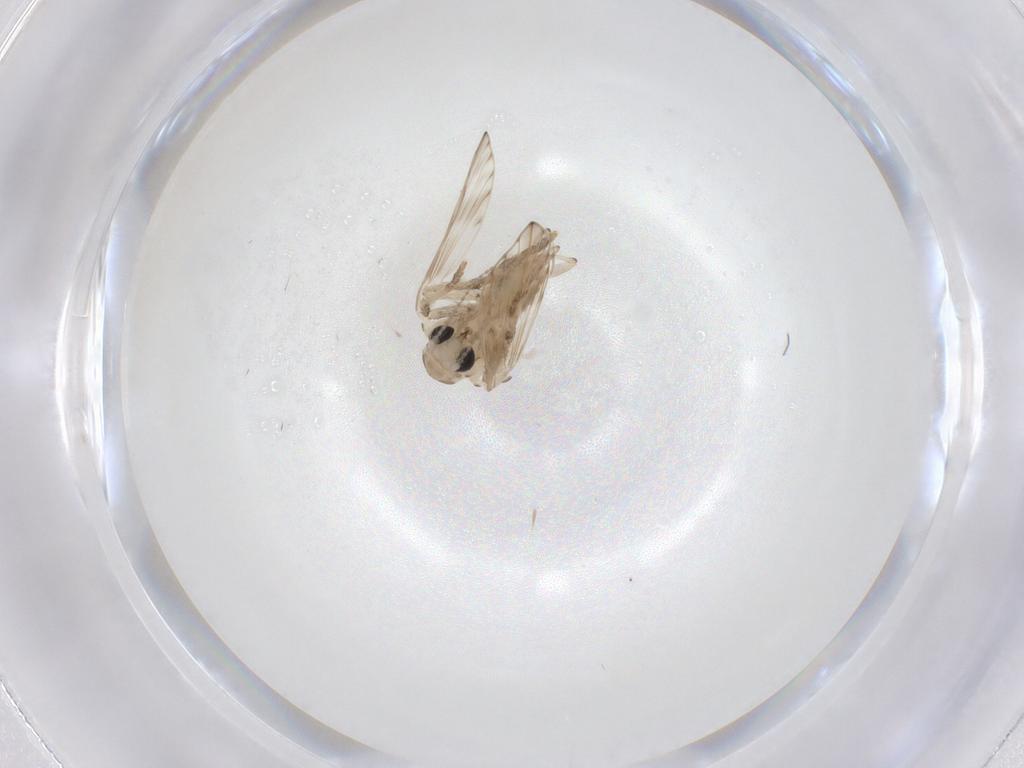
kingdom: Animalia
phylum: Arthropoda
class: Insecta
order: Diptera
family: Psychodidae
